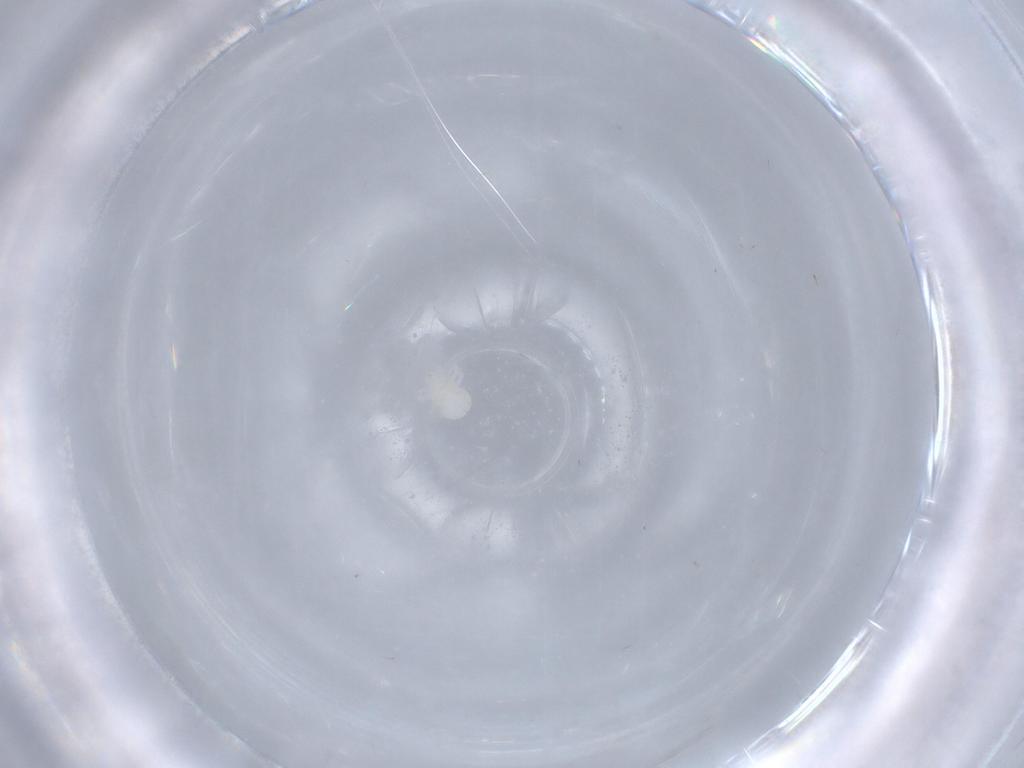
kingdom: Animalia
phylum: Arthropoda
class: Arachnida
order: Trombidiformes
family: Anystidae
